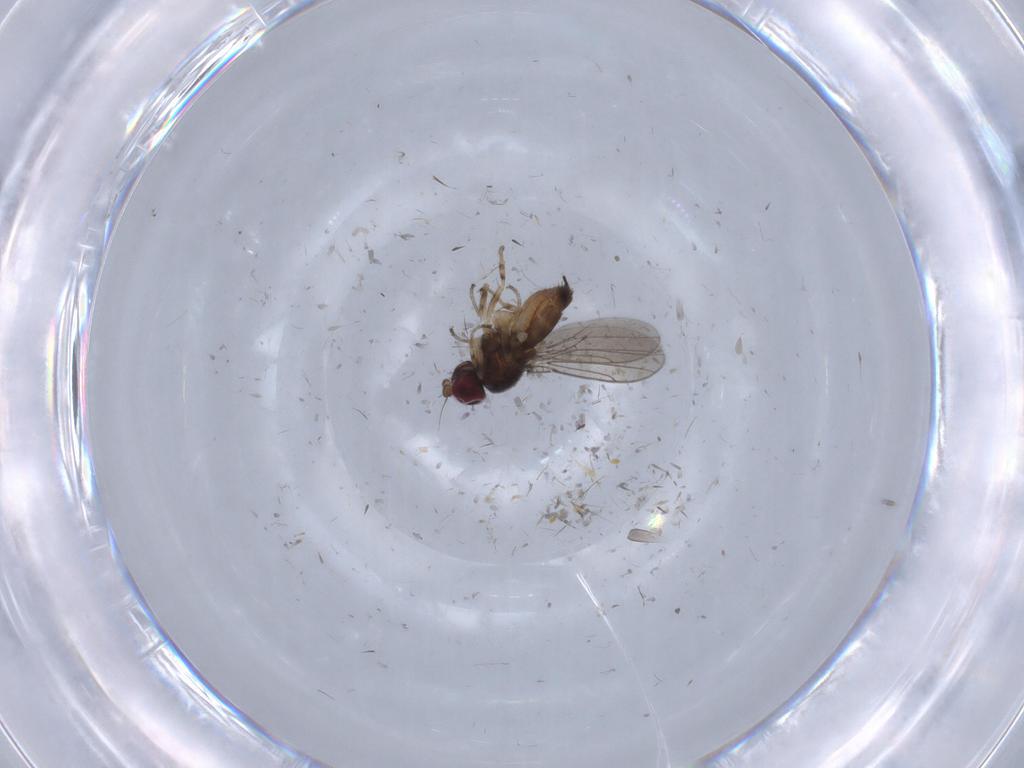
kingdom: Animalia
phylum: Arthropoda
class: Insecta
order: Diptera
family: Chloropidae
